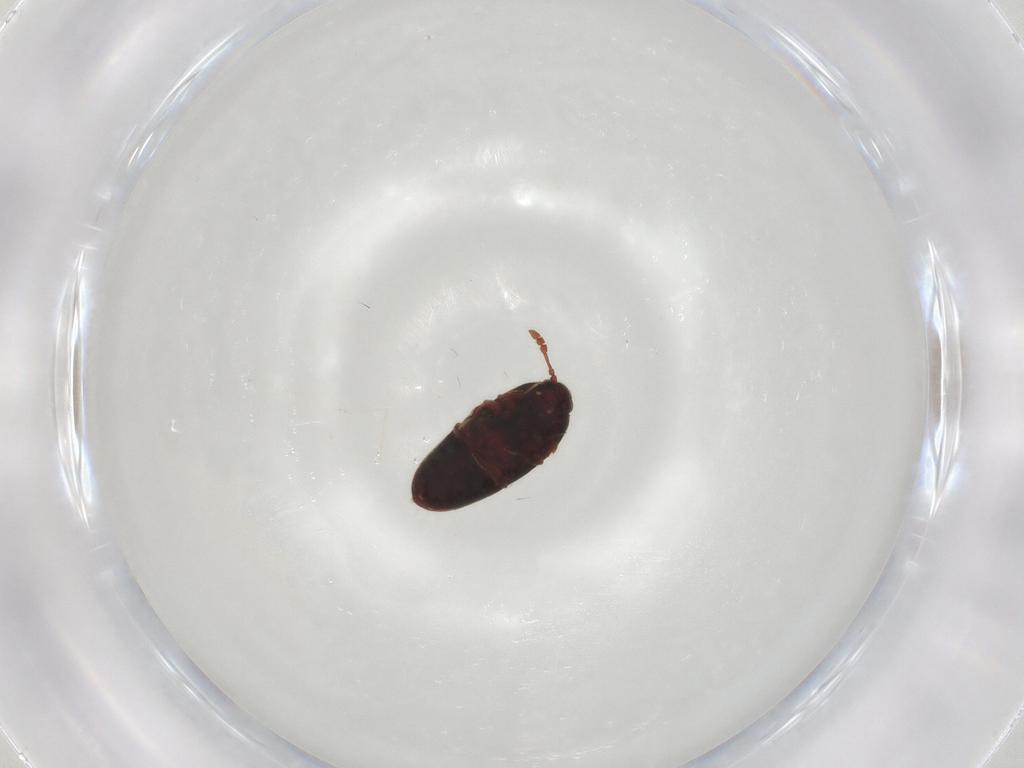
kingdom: Animalia
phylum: Arthropoda
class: Insecta
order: Coleoptera
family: Throscidae
